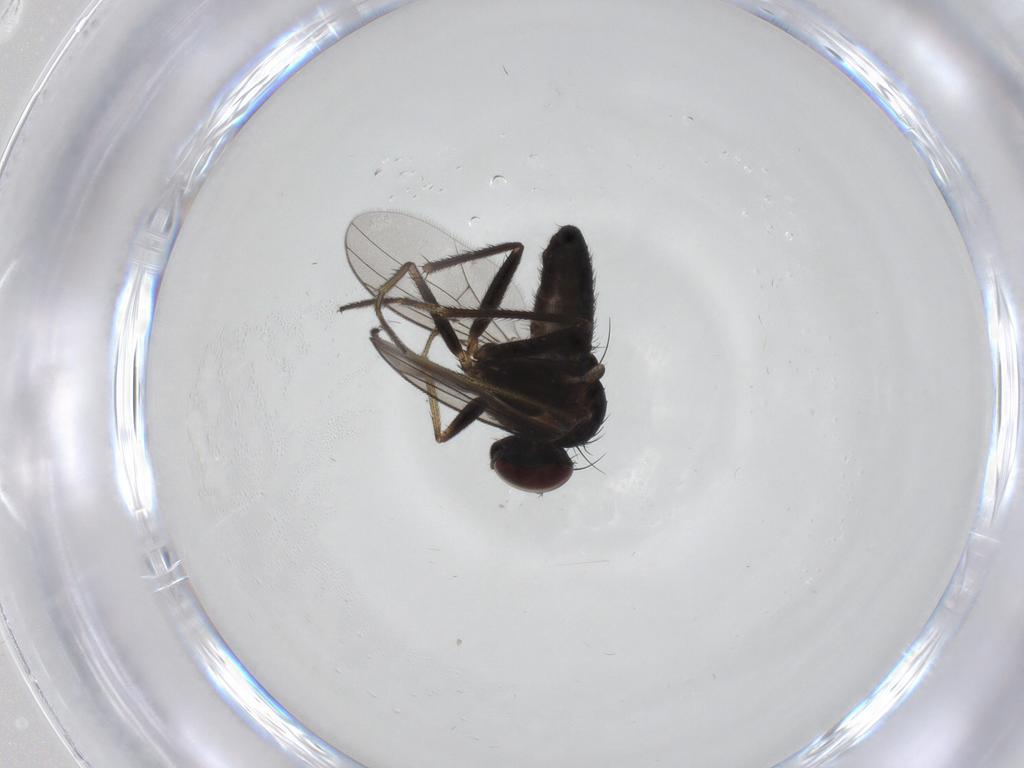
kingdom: Animalia
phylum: Arthropoda
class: Insecta
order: Diptera
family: Dolichopodidae
